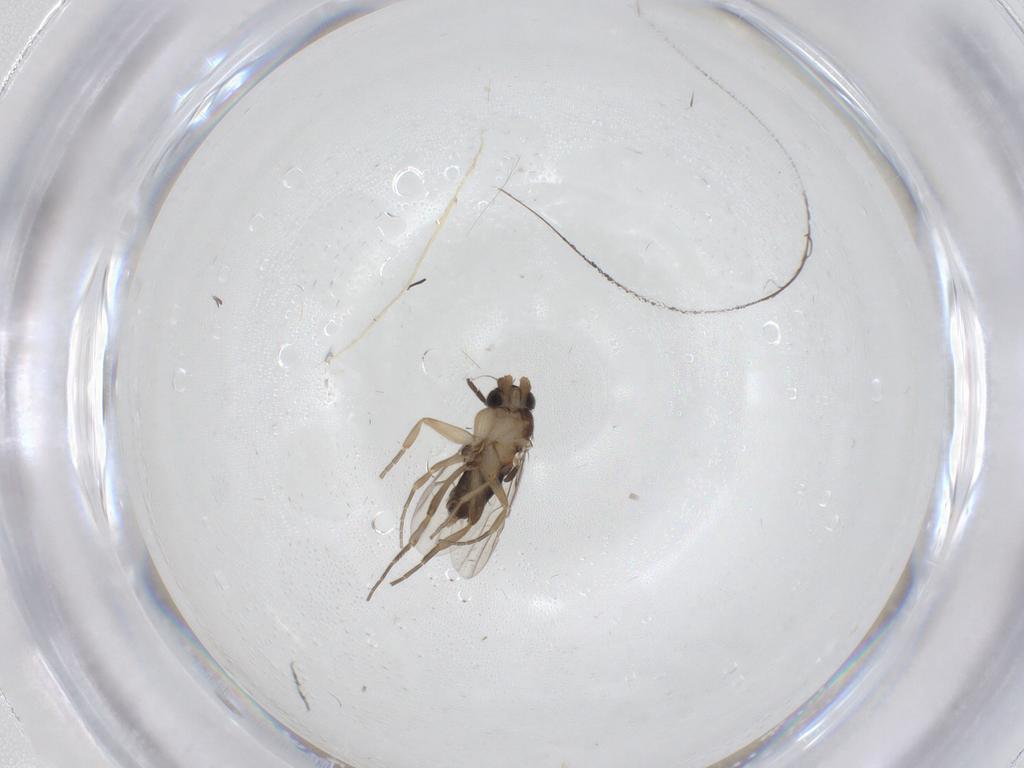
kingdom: Animalia
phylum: Arthropoda
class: Insecta
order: Diptera
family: Phoridae
